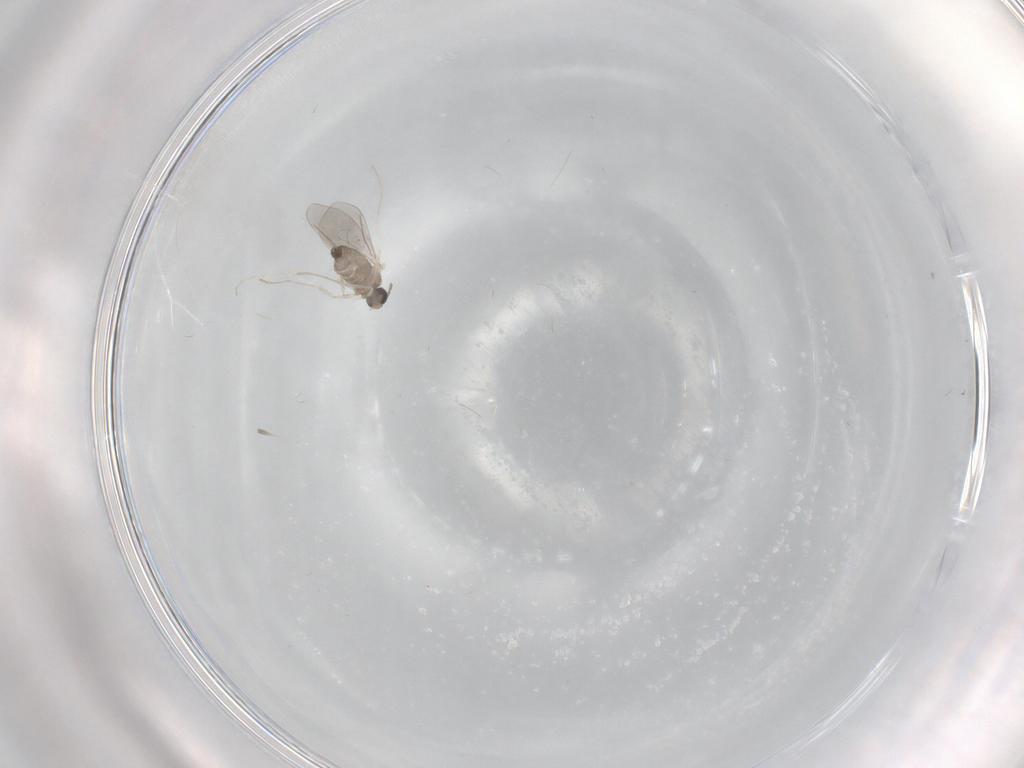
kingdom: Animalia
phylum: Arthropoda
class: Insecta
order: Diptera
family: Cecidomyiidae
